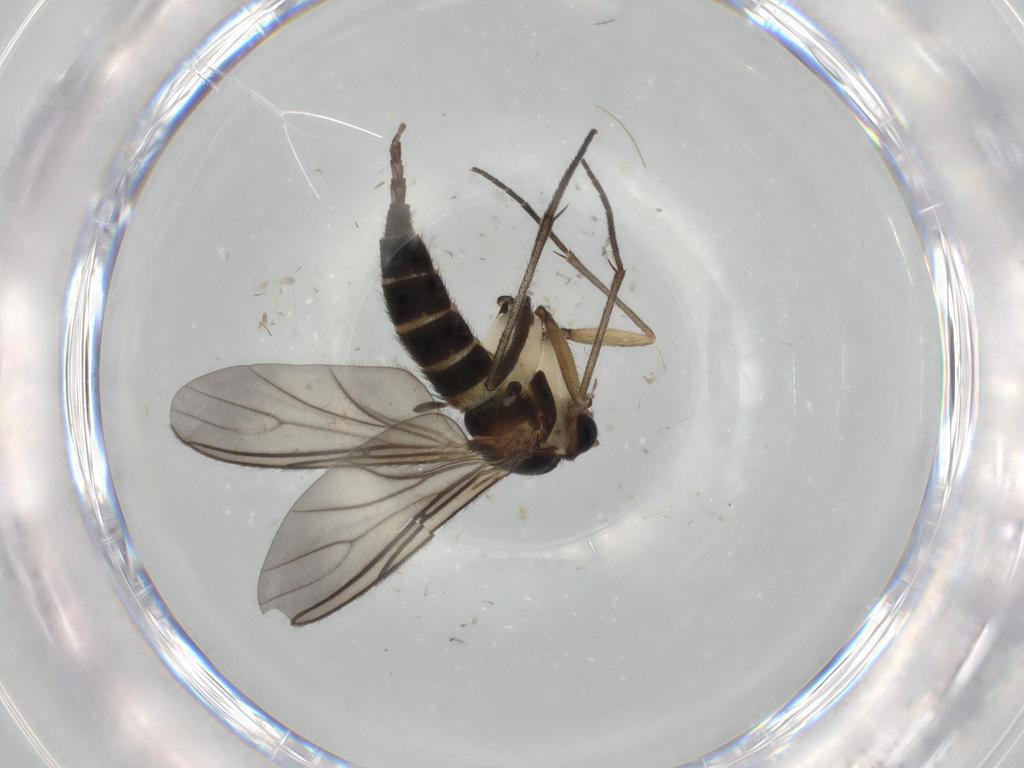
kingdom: Animalia
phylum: Arthropoda
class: Insecta
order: Diptera
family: Sciaridae
